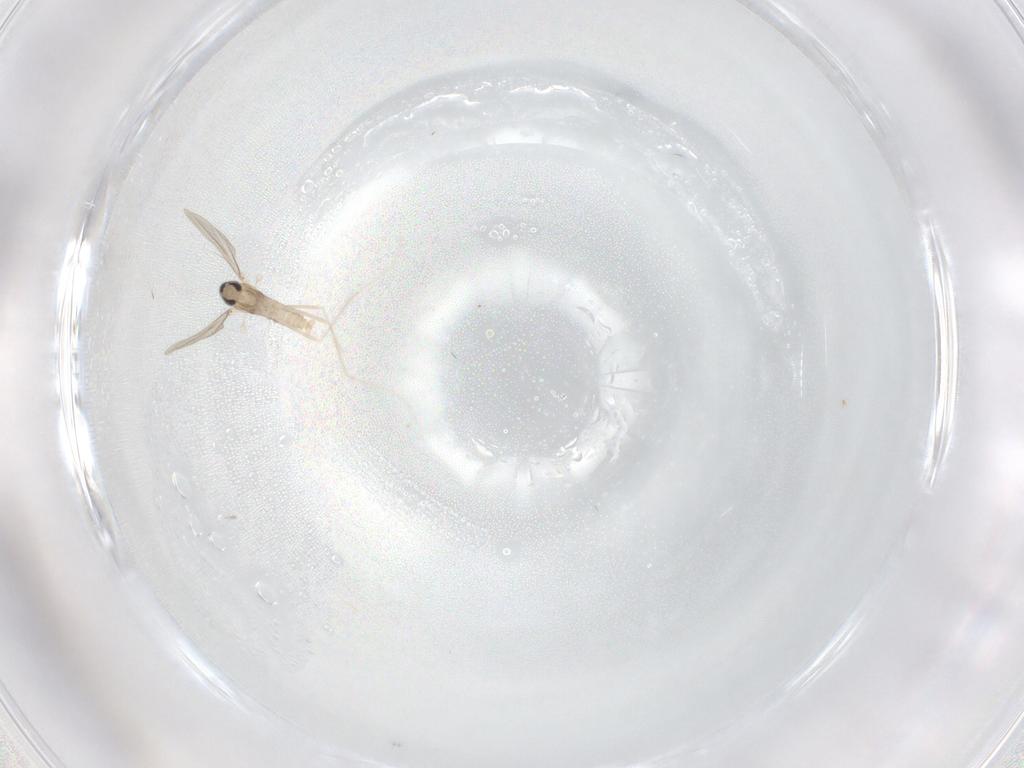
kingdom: Animalia
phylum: Arthropoda
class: Insecta
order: Diptera
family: Cecidomyiidae
